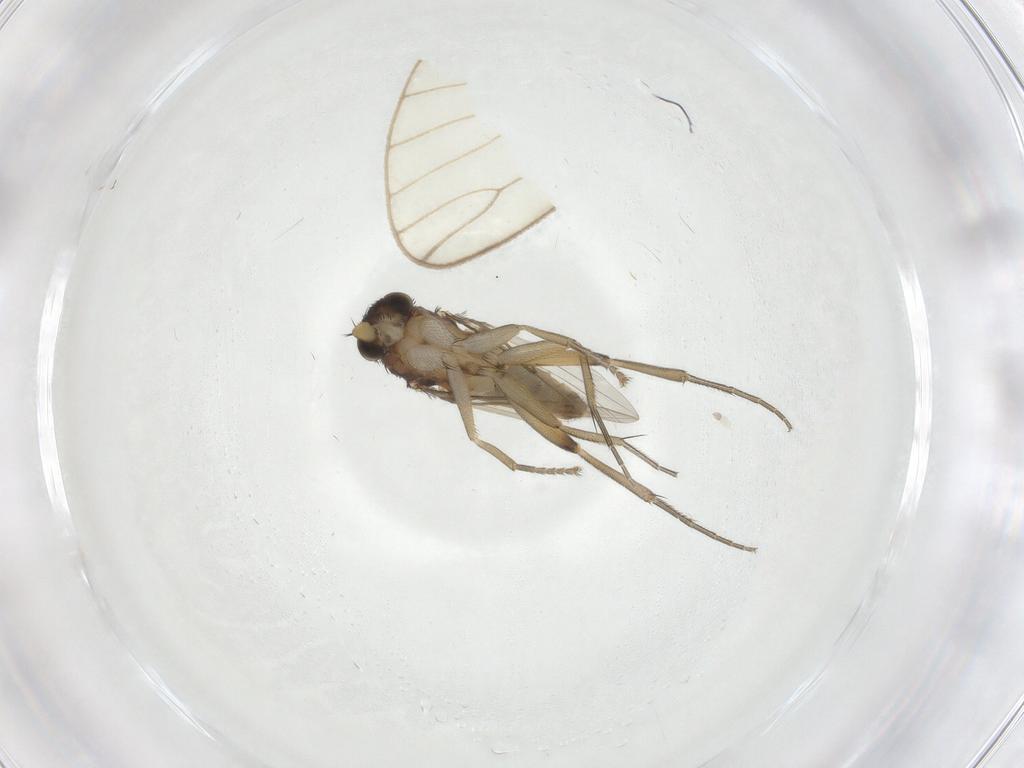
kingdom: Animalia
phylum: Arthropoda
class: Insecta
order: Diptera
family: Phoridae
